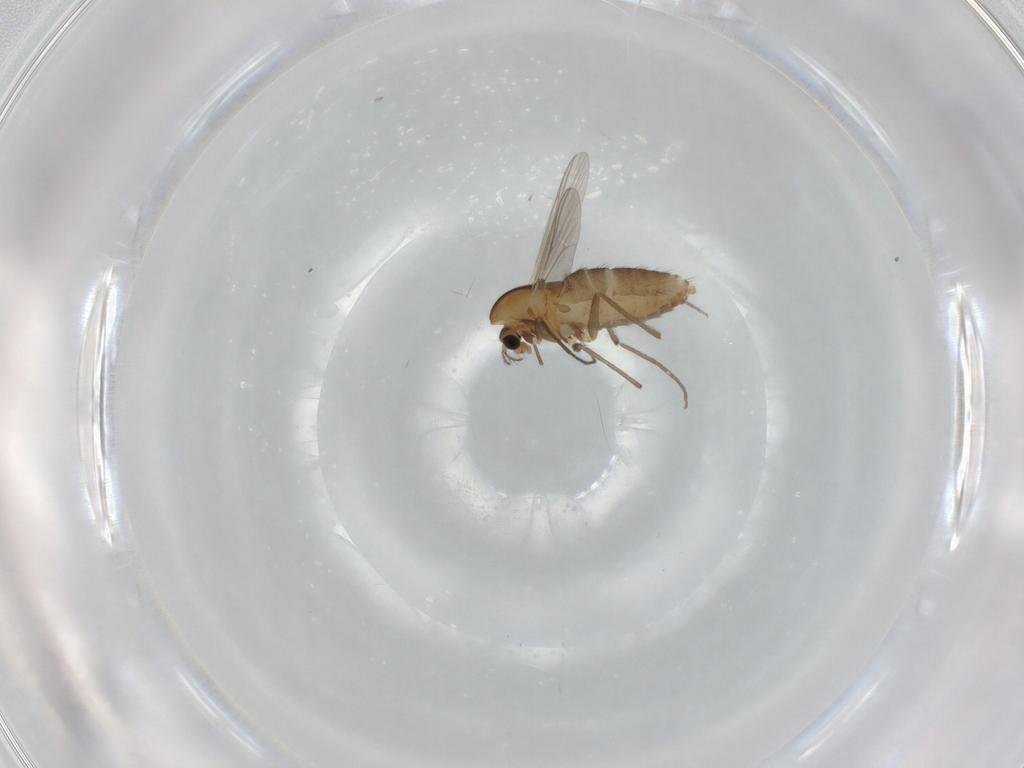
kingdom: Animalia
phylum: Arthropoda
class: Insecta
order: Diptera
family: Chironomidae
